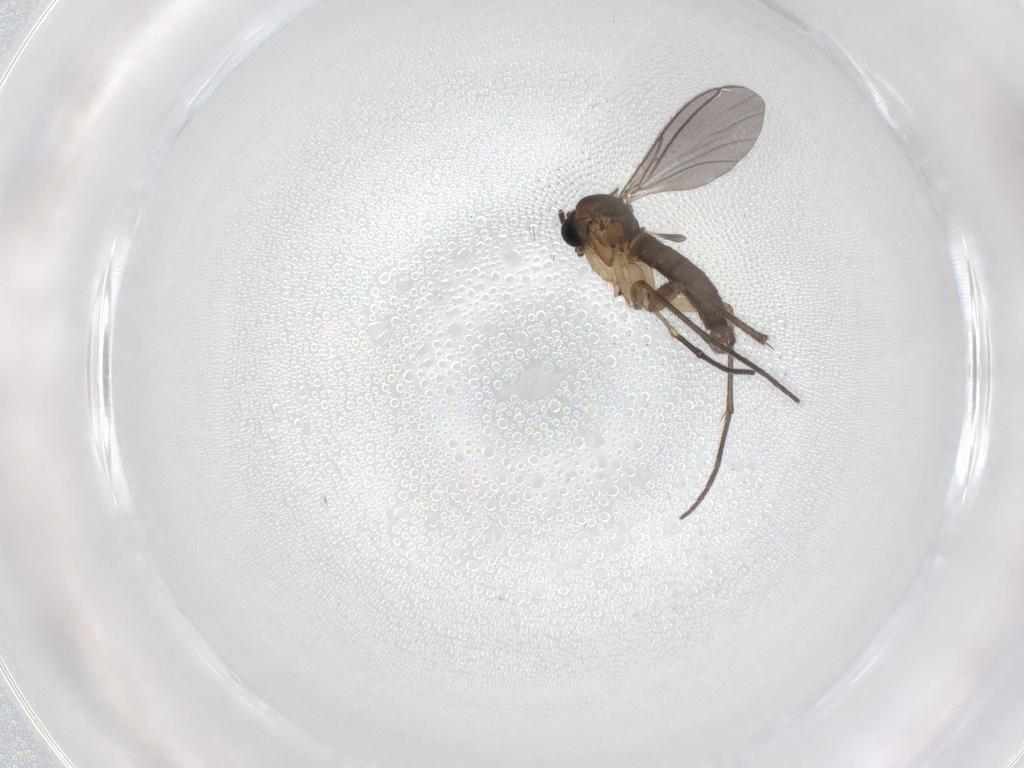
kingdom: Animalia
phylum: Arthropoda
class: Insecta
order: Diptera
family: Sciaridae
